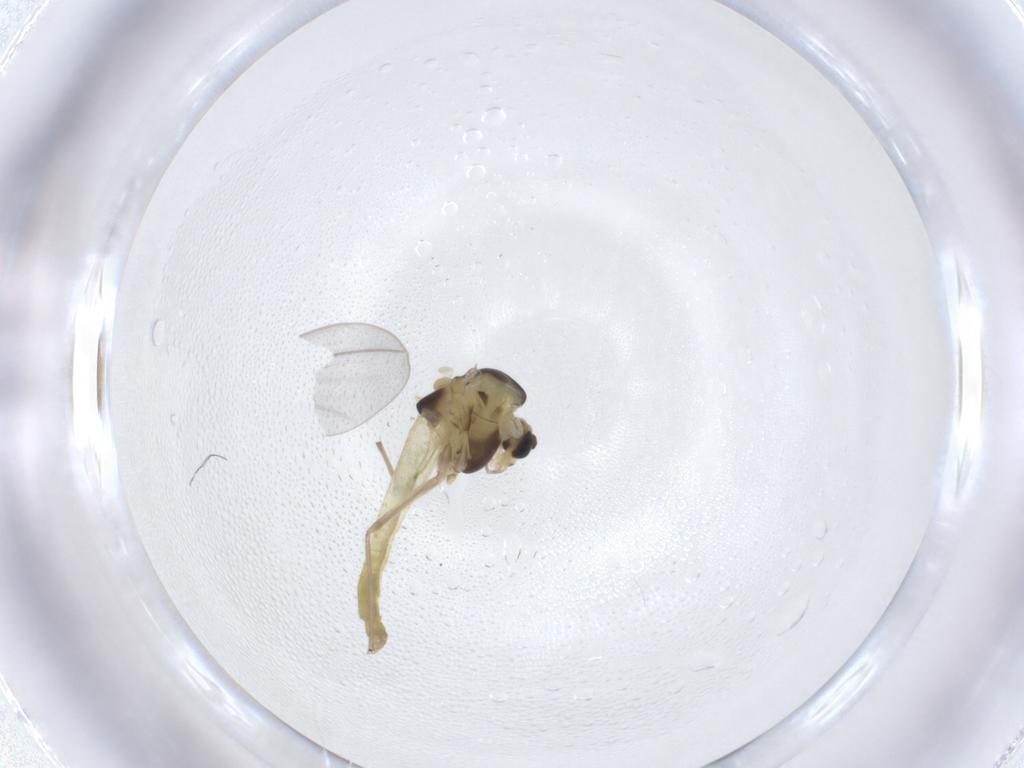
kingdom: Animalia
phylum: Arthropoda
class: Insecta
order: Diptera
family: Chironomidae
